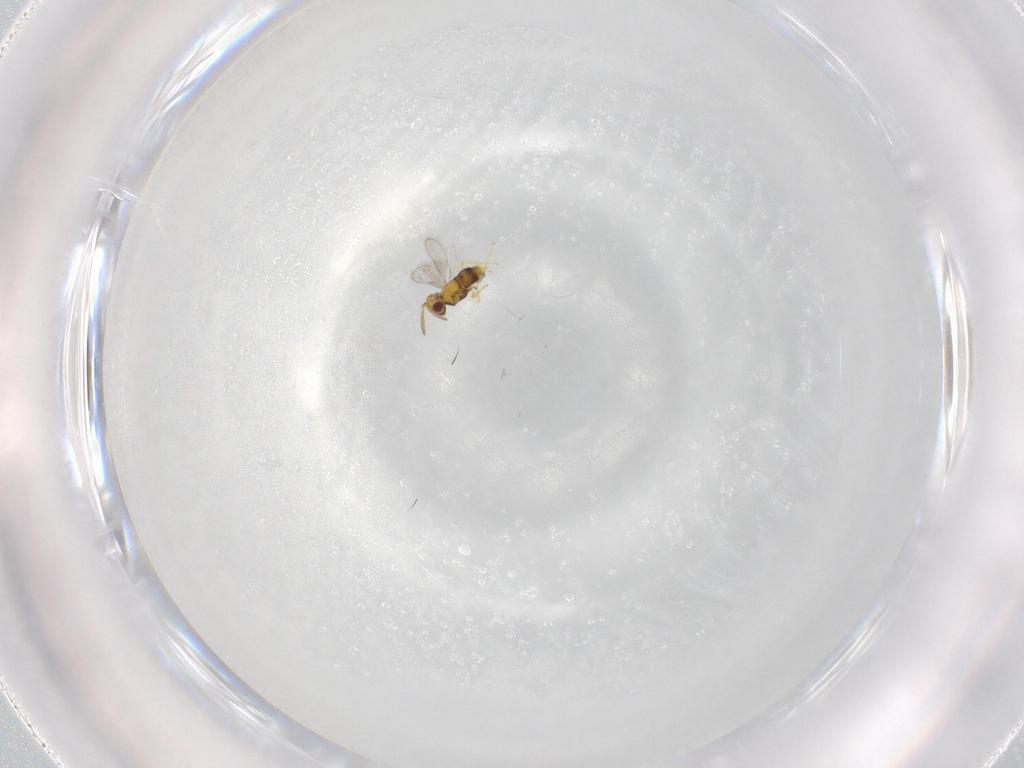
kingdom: Animalia
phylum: Arthropoda
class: Insecta
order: Hymenoptera
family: Aphelinidae
